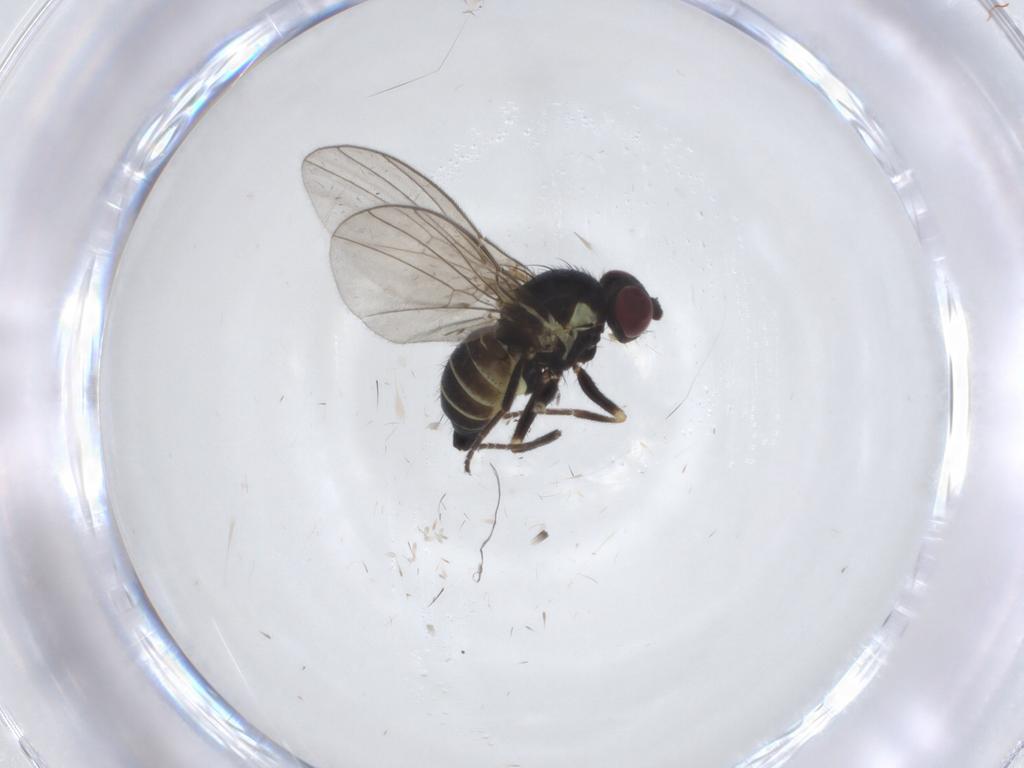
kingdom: Animalia
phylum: Arthropoda
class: Insecta
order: Diptera
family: Agromyzidae
